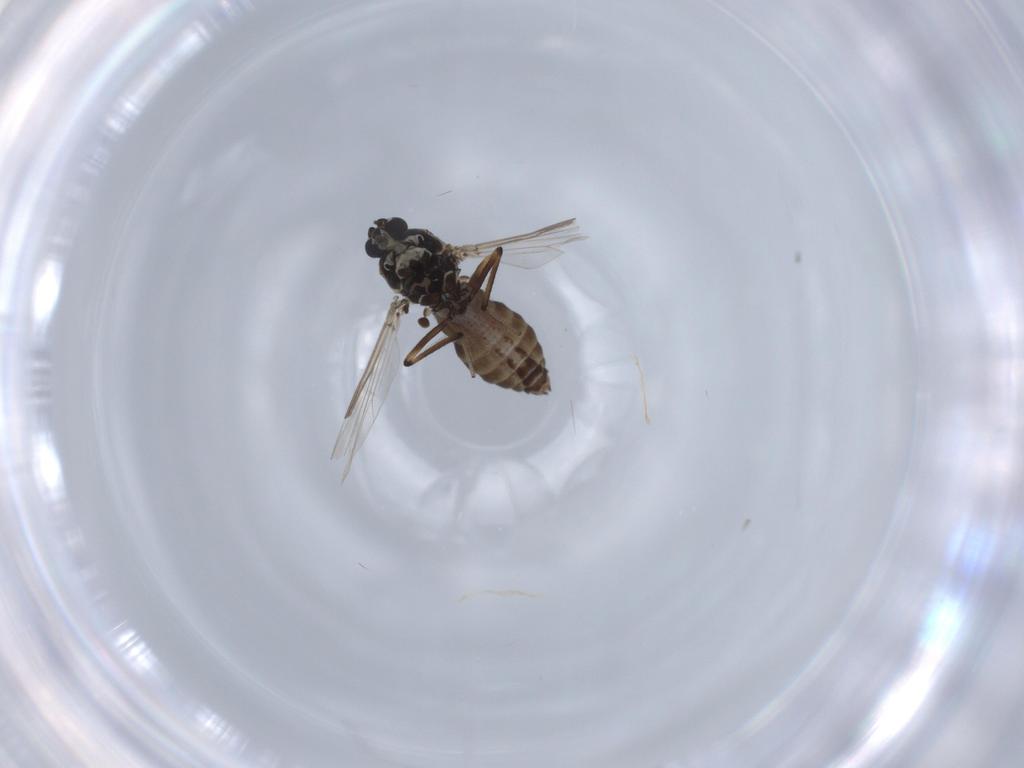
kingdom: Animalia
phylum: Arthropoda
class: Insecta
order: Diptera
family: Ceratopogonidae
